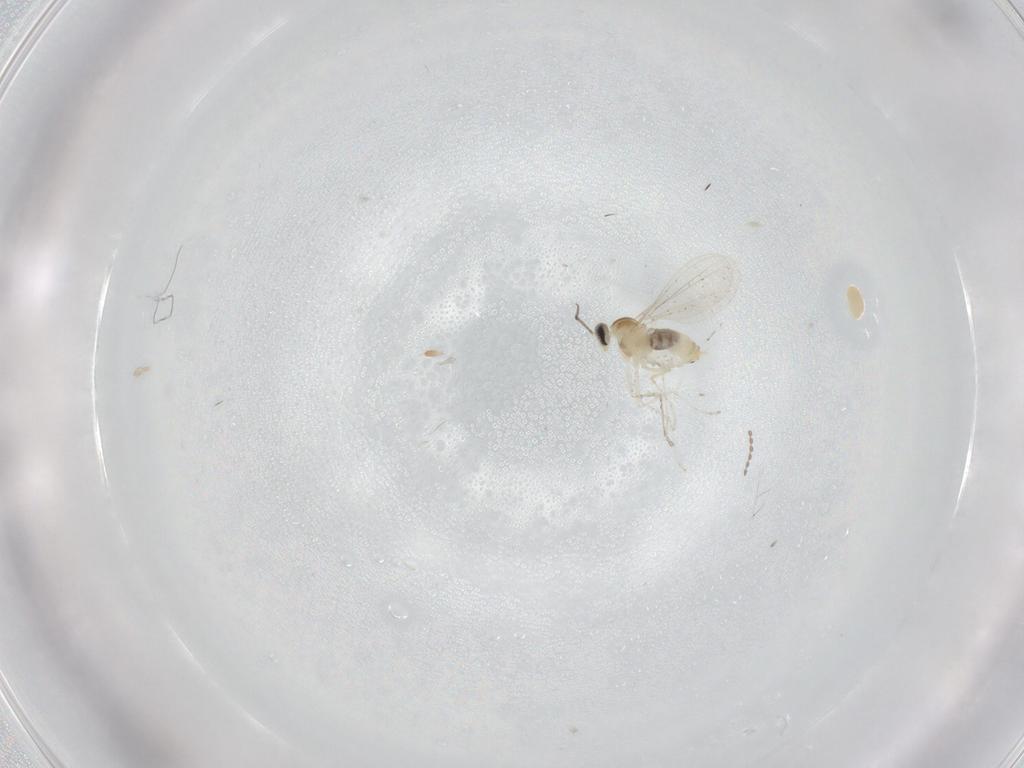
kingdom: Animalia
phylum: Arthropoda
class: Insecta
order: Diptera
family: Cecidomyiidae
